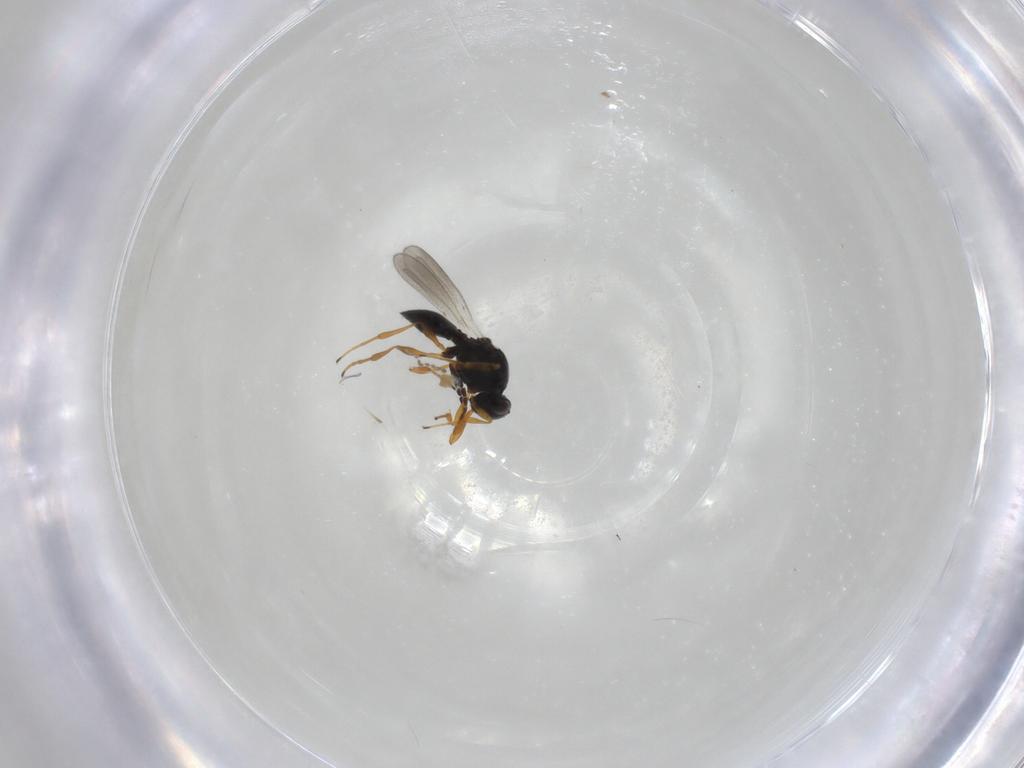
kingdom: Animalia
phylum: Arthropoda
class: Insecta
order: Hymenoptera
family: Platygastridae
